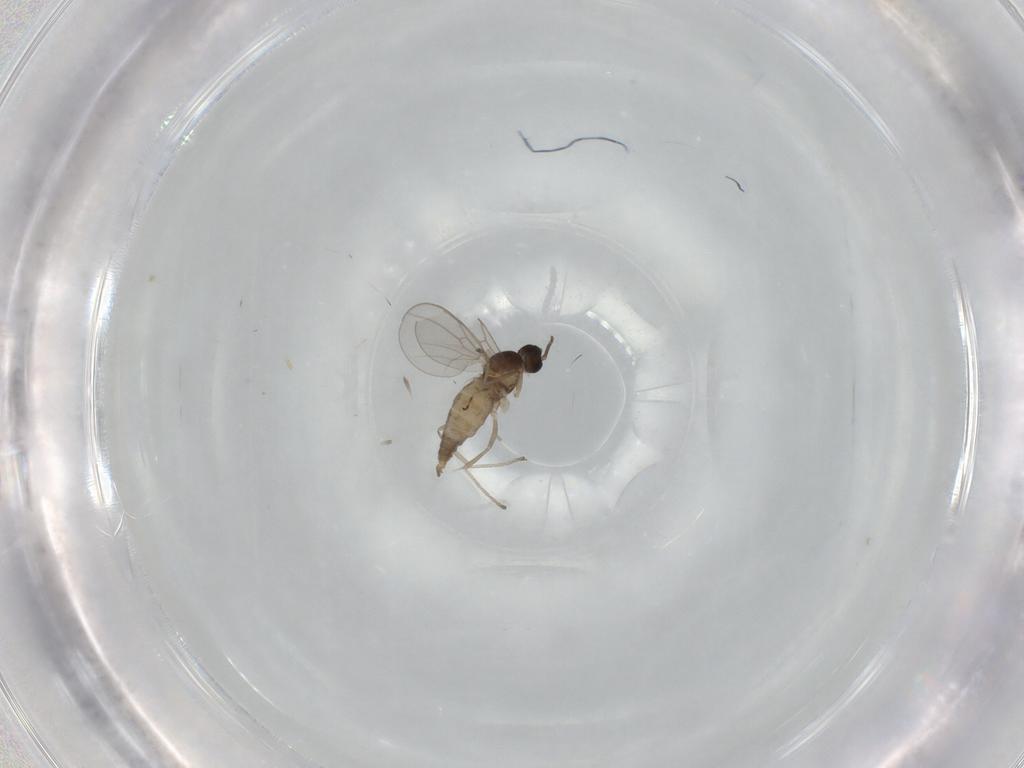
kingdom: Animalia
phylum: Arthropoda
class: Insecta
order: Diptera
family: Cecidomyiidae
